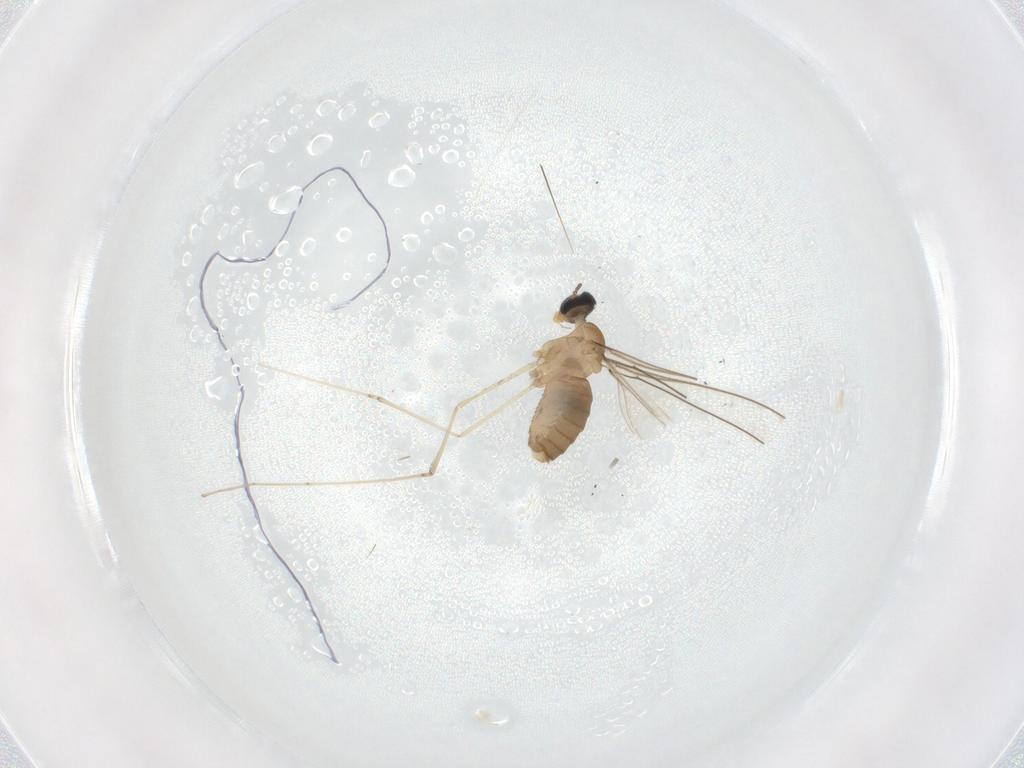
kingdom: Animalia
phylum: Arthropoda
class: Insecta
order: Diptera
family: Cecidomyiidae
